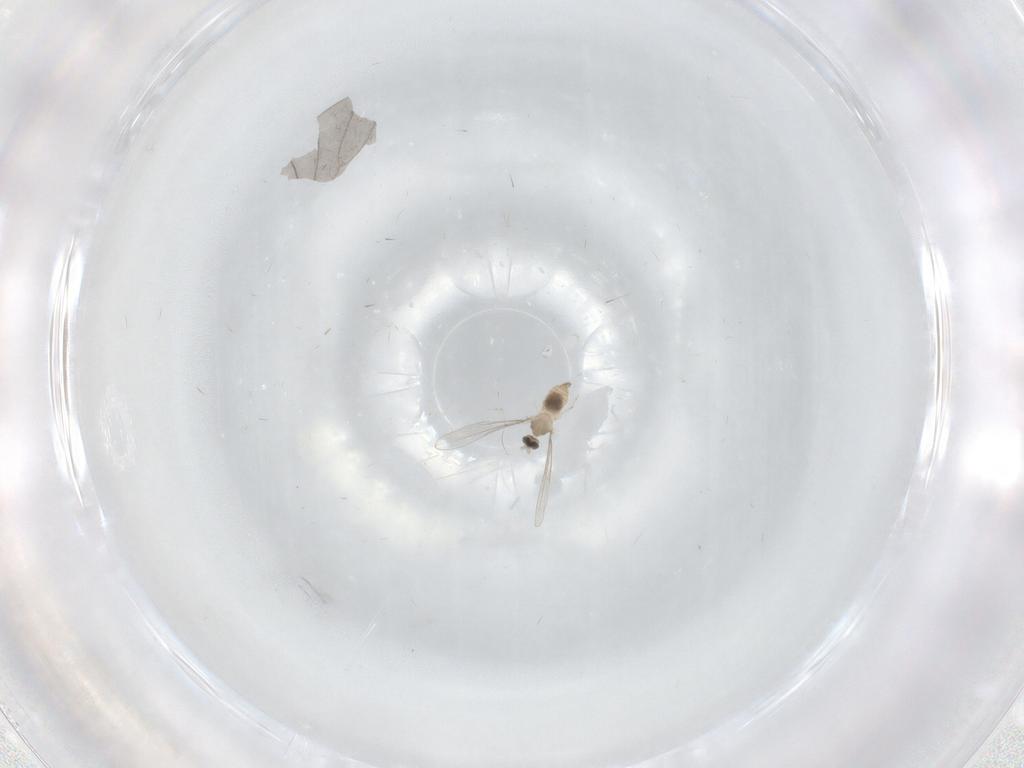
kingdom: Animalia
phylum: Arthropoda
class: Insecta
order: Diptera
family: Cecidomyiidae
